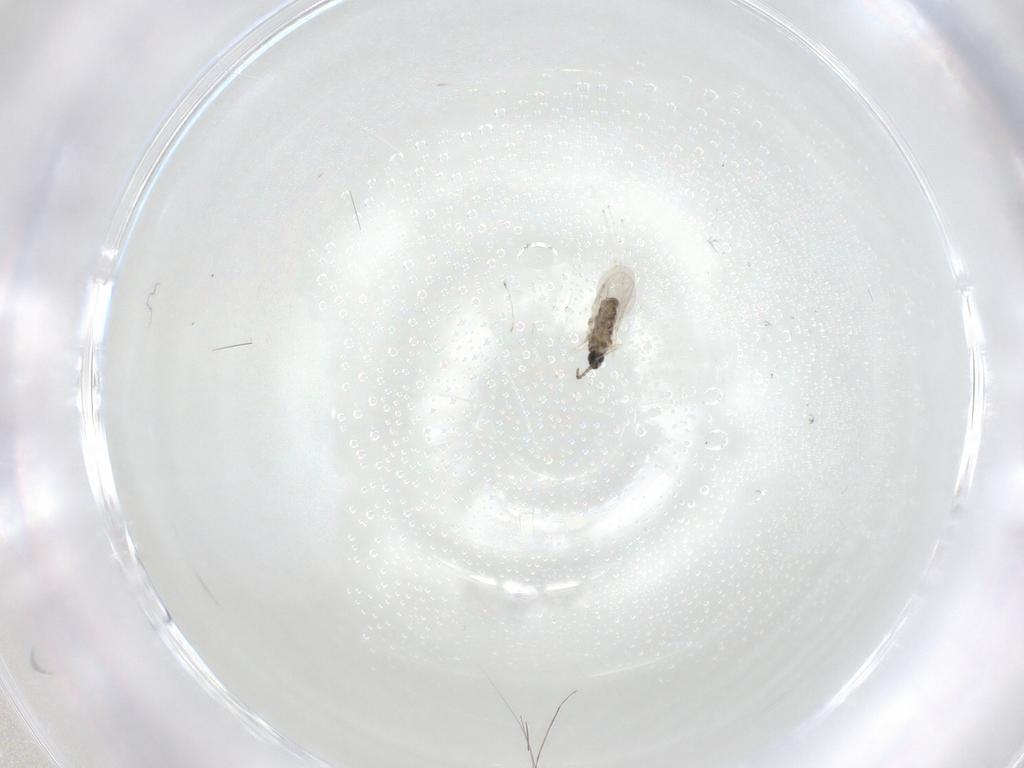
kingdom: Animalia
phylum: Arthropoda
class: Insecta
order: Diptera
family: Cecidomyiidae
